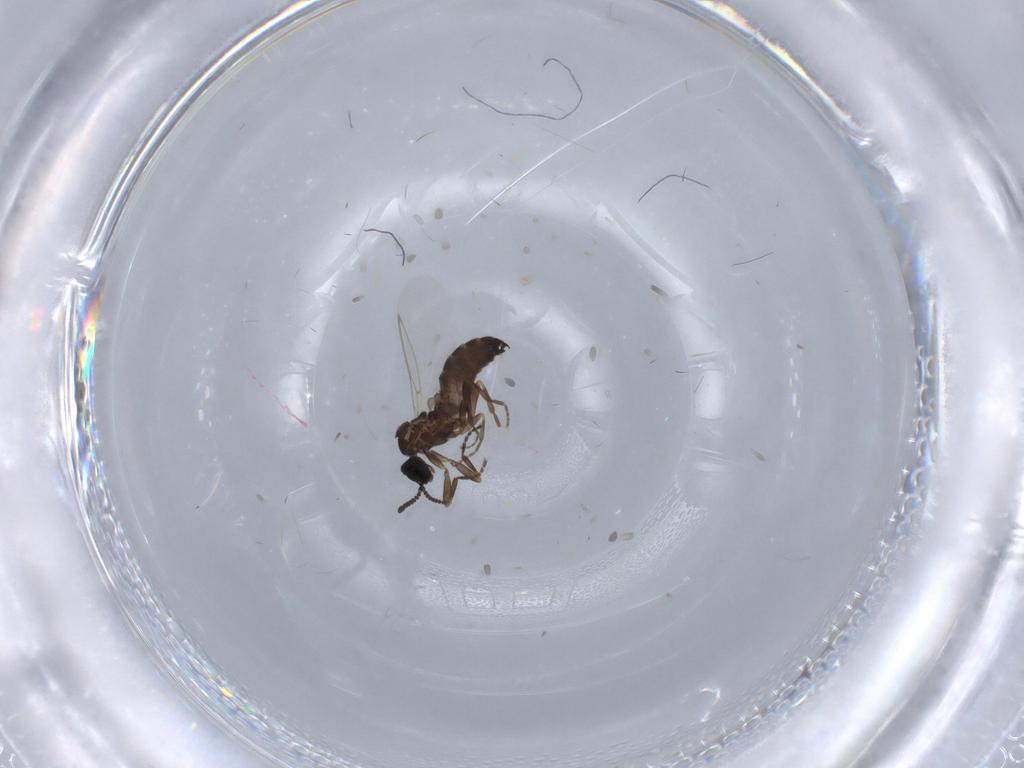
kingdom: Animalia
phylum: Arthropoda
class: Insecta
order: Diptera
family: Scatopsidae
